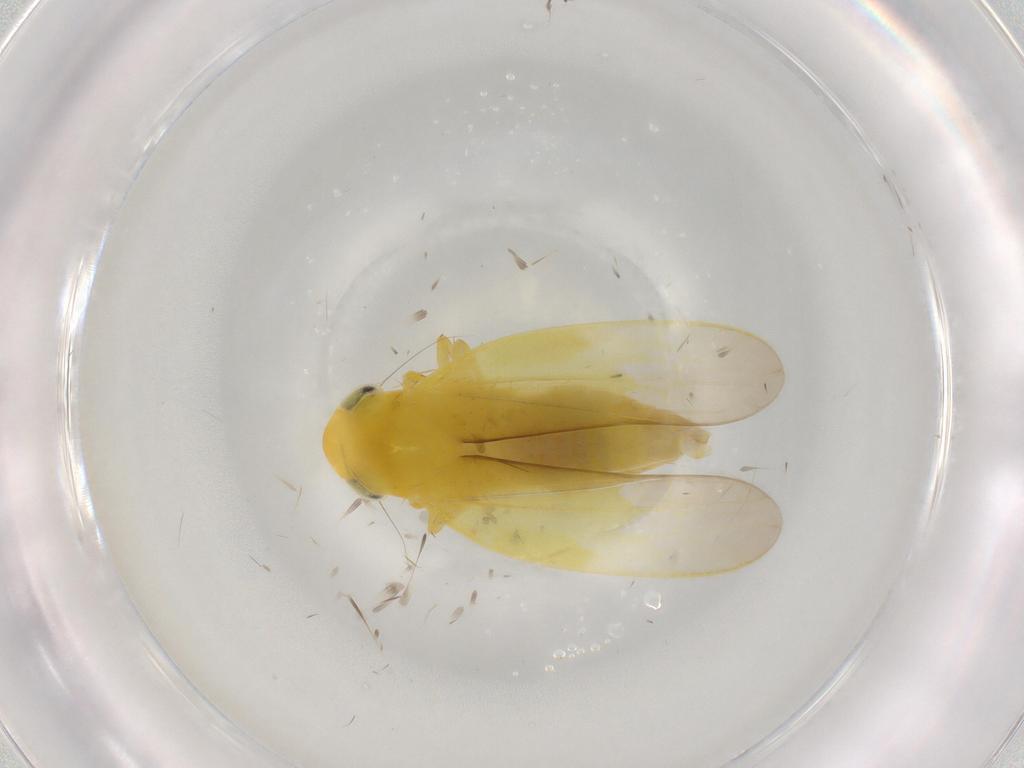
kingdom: Animalia
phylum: Arthropoda
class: Insecta
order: Hemiptera
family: Cicadellidae
